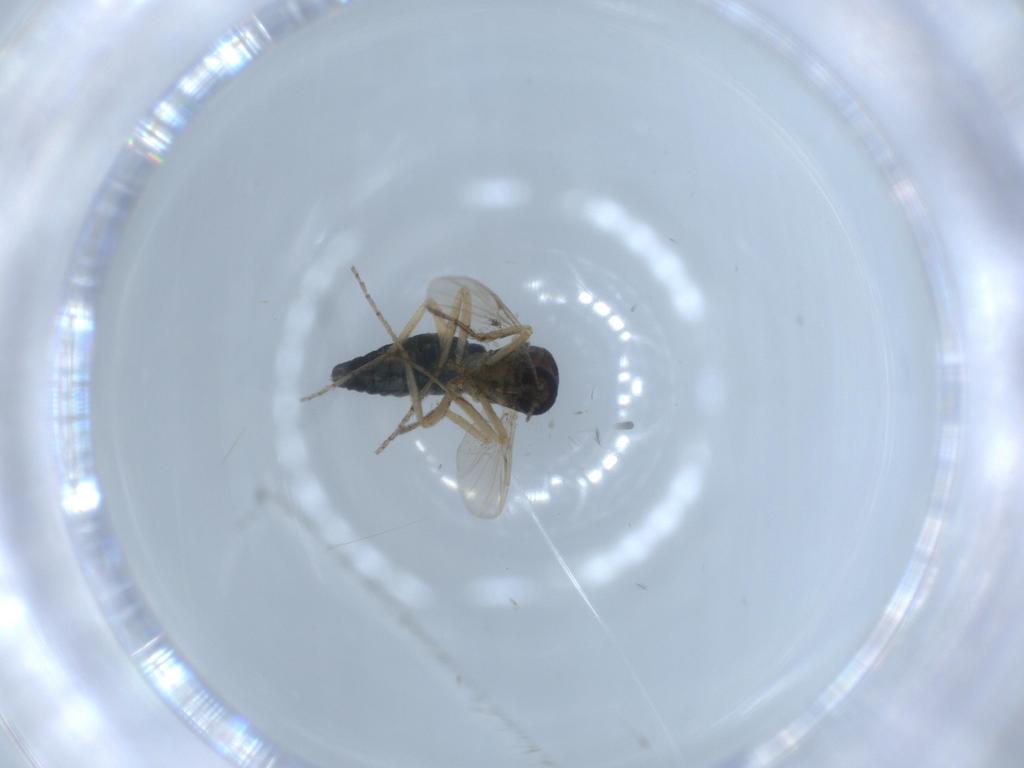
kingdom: Animalia
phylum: Arthropoda
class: Insecta
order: Diptera
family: Ceratopogonidae
